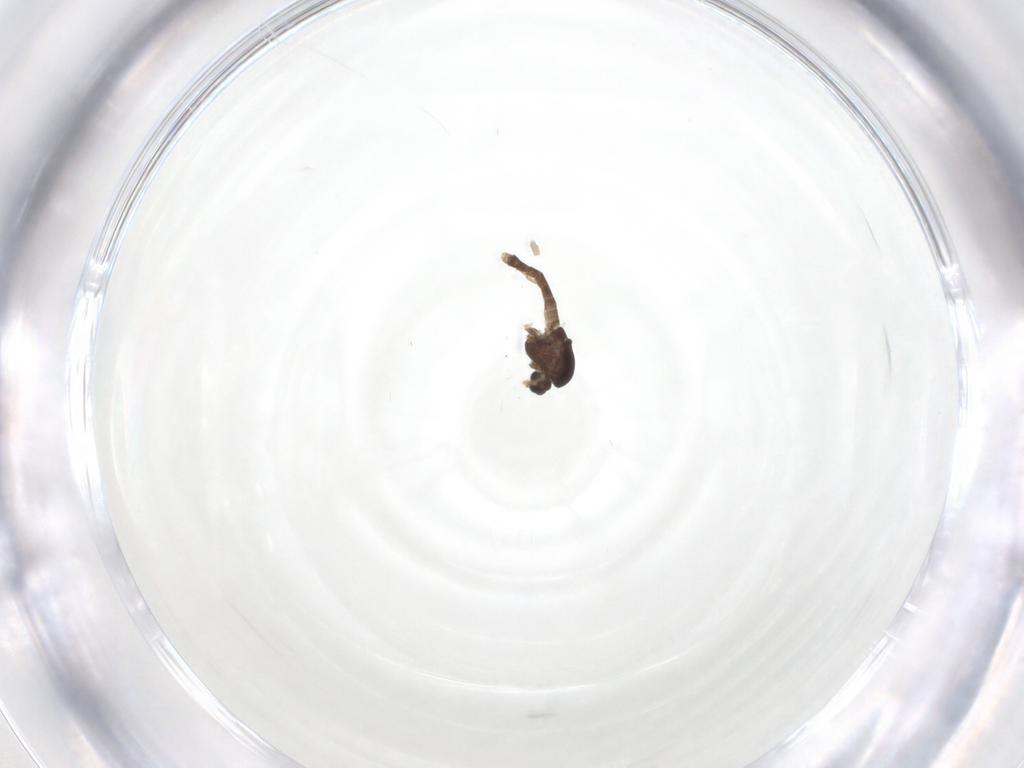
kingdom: Animalia
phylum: Arthropoda
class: Insecta
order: Diptera
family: Chironomidae
